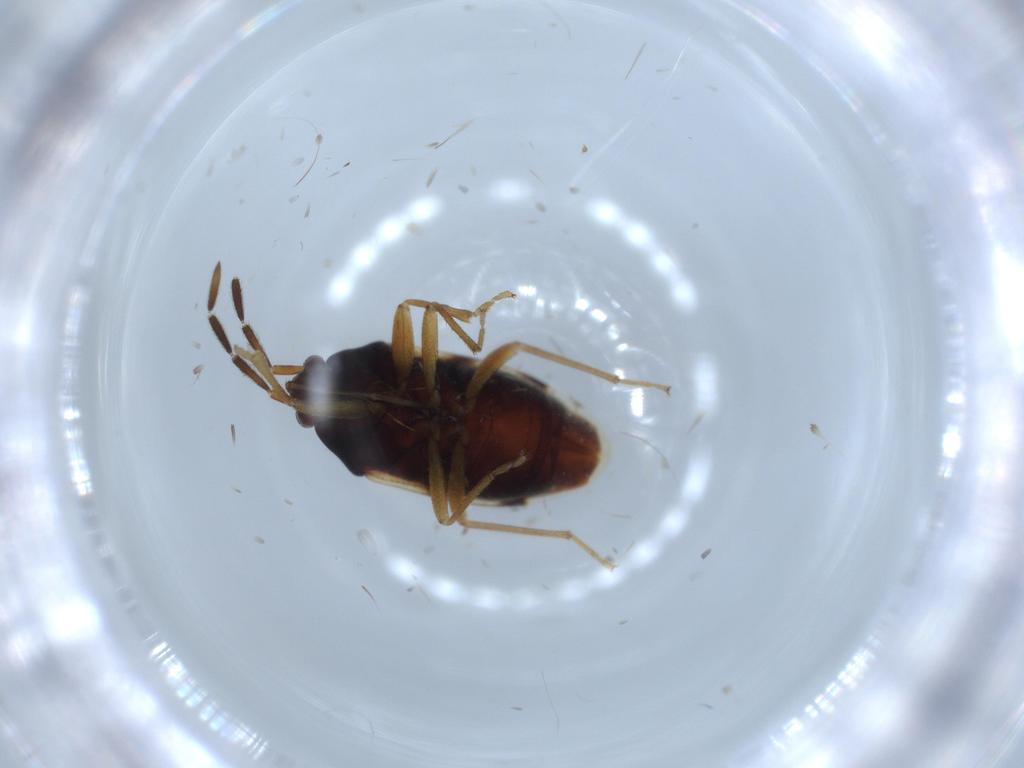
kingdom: Animalia
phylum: Arthropoda
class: Insecta
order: Hemiptera
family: Rhyparochromidae
